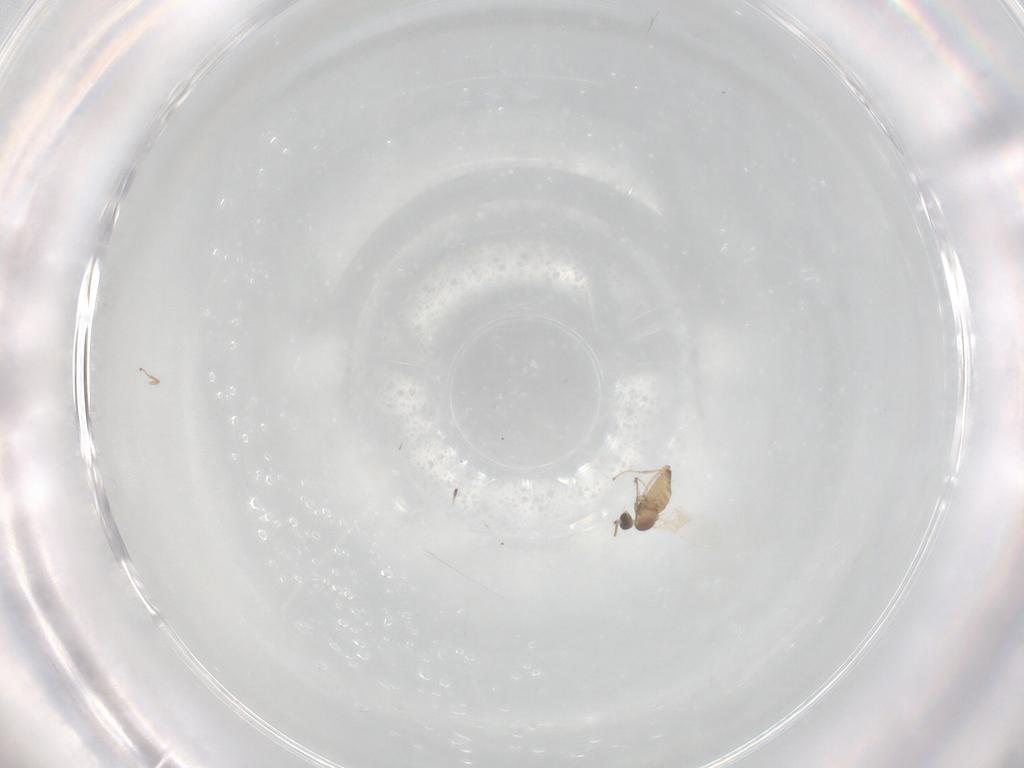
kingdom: Animalia
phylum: Arthropoda
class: Insecta
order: Diptera
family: Cecidomyiidae
